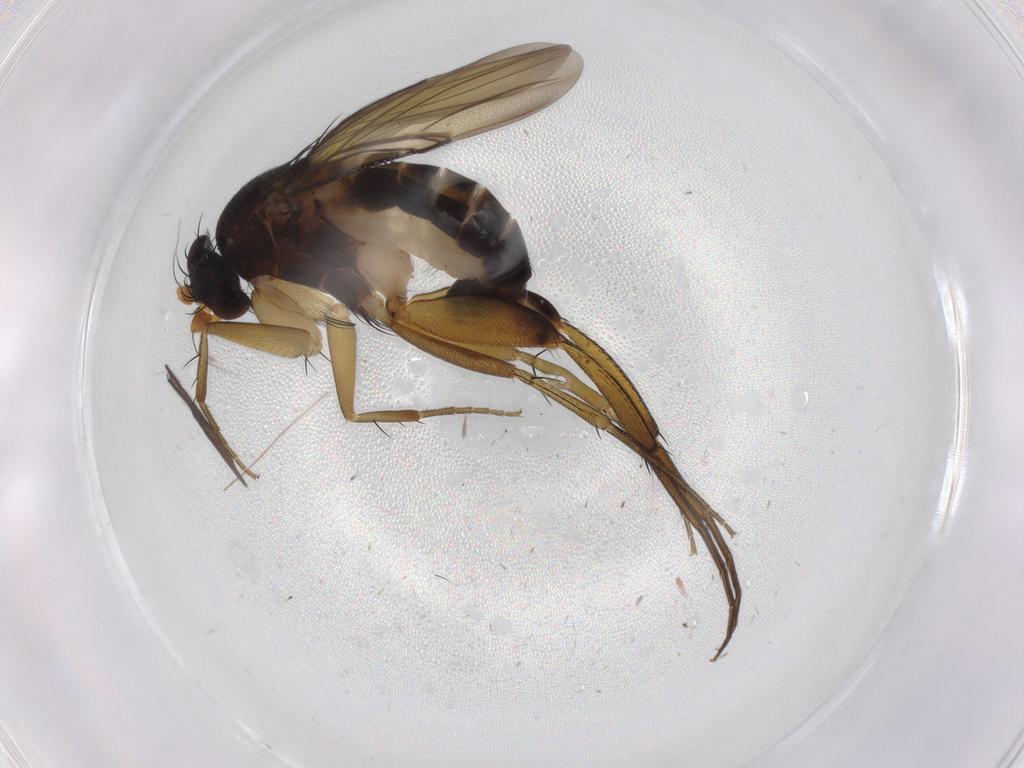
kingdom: Animalia
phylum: Arthropoda
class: Insecta
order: Diptera
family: Phoridae
